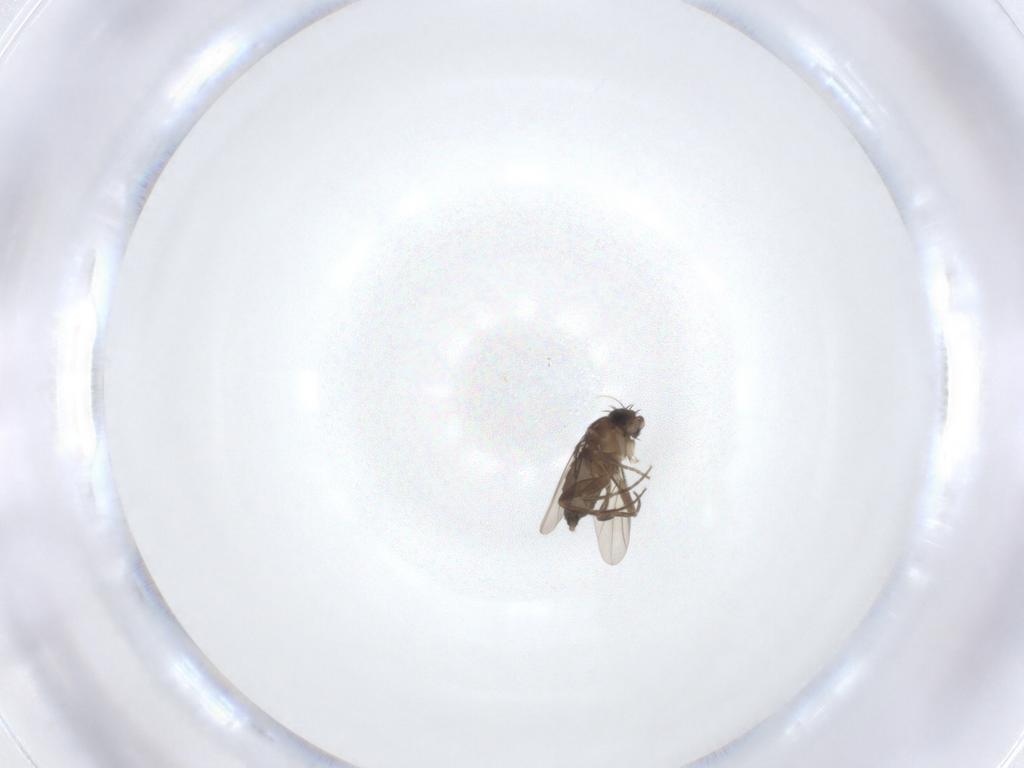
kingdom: Animalia
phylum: Arthropoda
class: Insecta
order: Diptera
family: Phoridae
